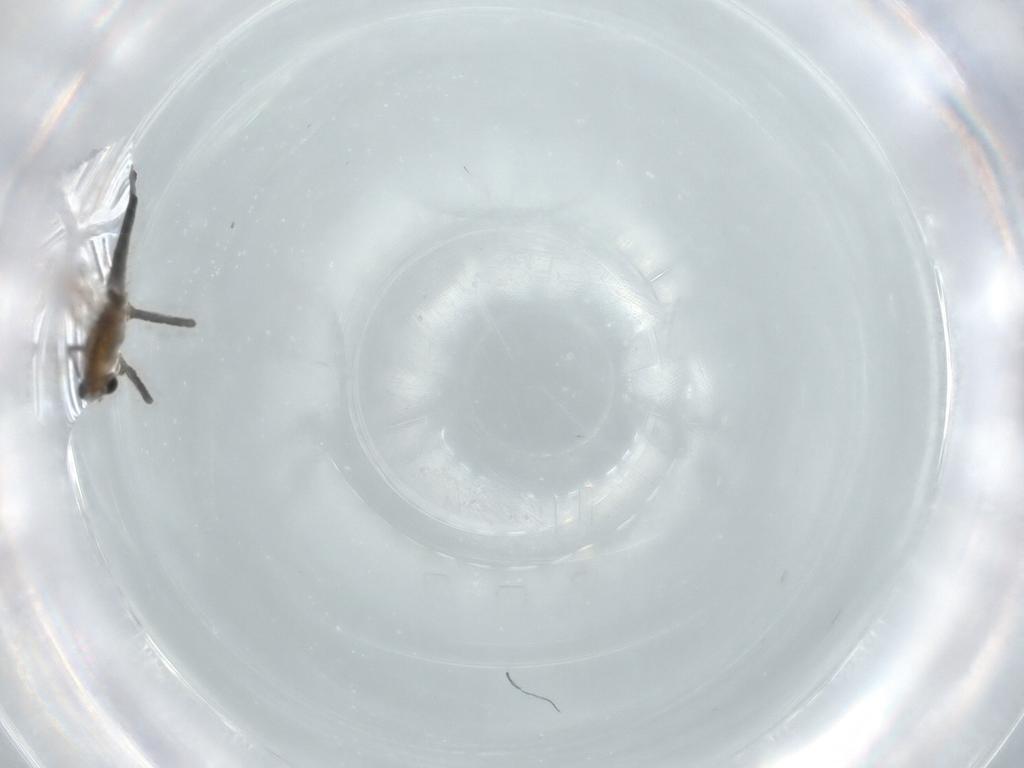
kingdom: Animalia
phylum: Arthropoda
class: Insecta
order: Diptera
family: Chironomidae
